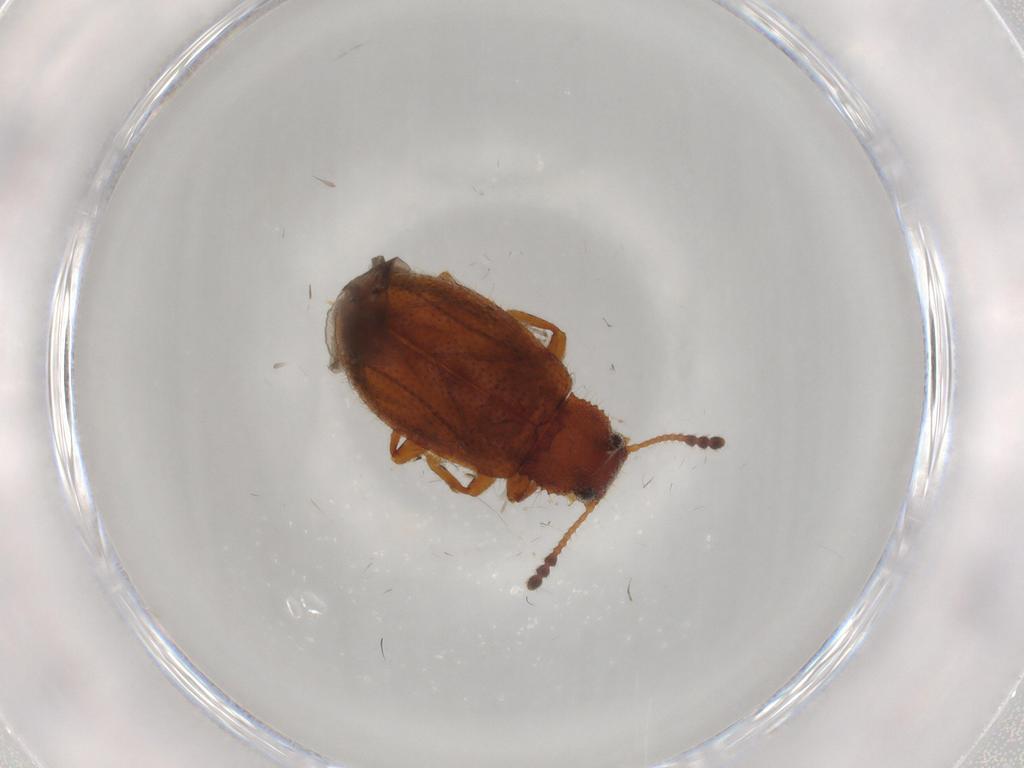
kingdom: Animalia
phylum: Arthropoda
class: Insecta
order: Coleoptera
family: Tenebrionidae
